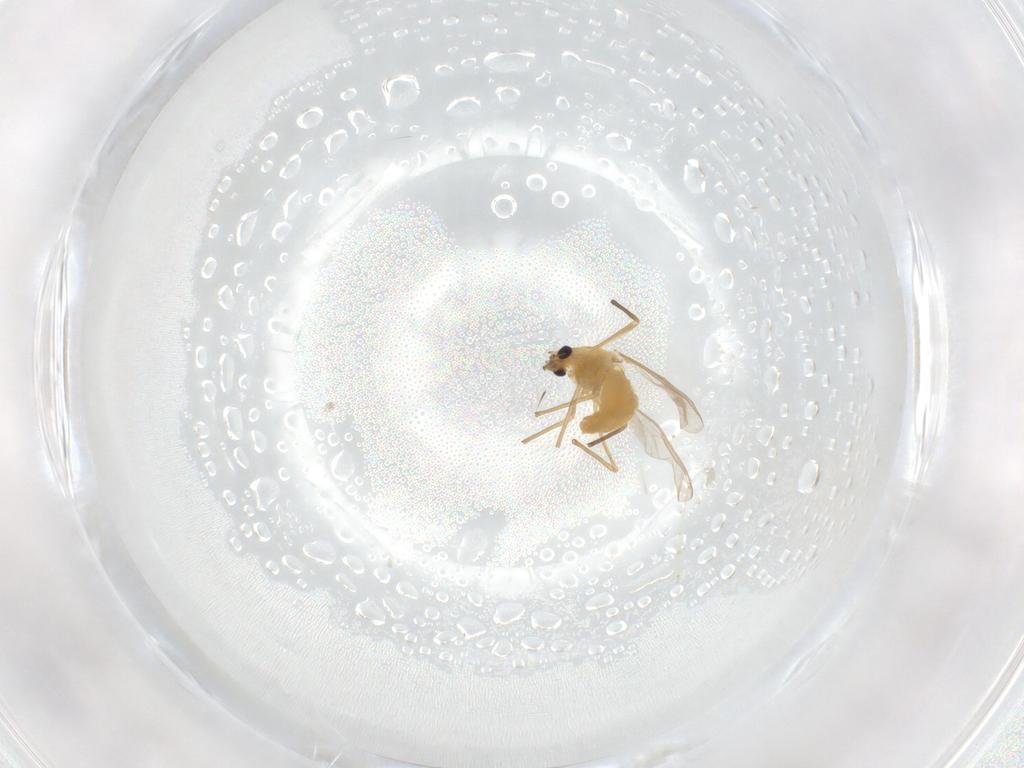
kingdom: Animalia
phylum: Arthropoda
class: Insecta
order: Diptera
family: Chironomidae
